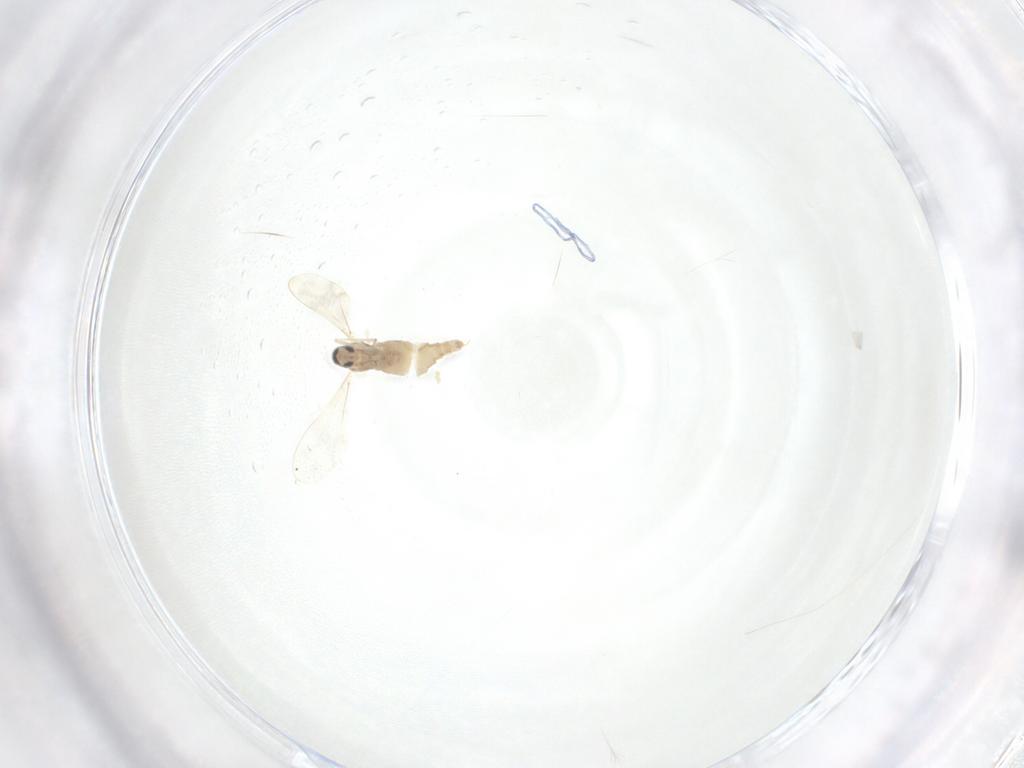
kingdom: Animalia
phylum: Arthropoda
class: Insecta
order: Diptera
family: Cecidomyiidae
